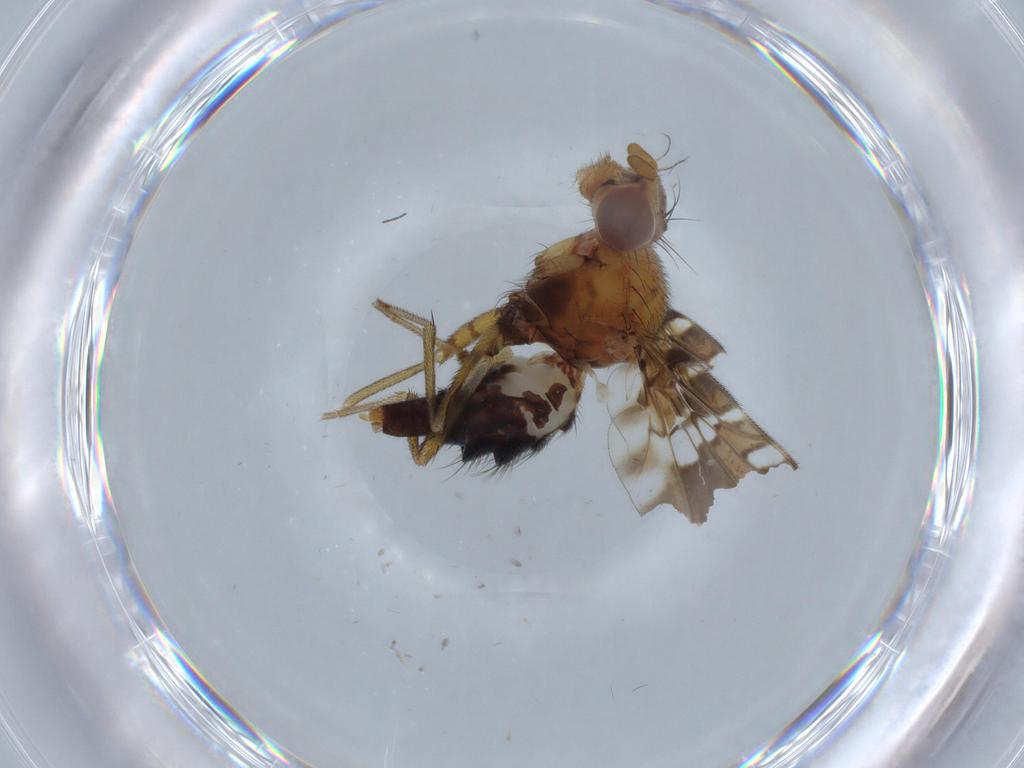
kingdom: Animalia
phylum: Arthropoda
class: Insecta
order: Diptera
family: Ulidiidae
